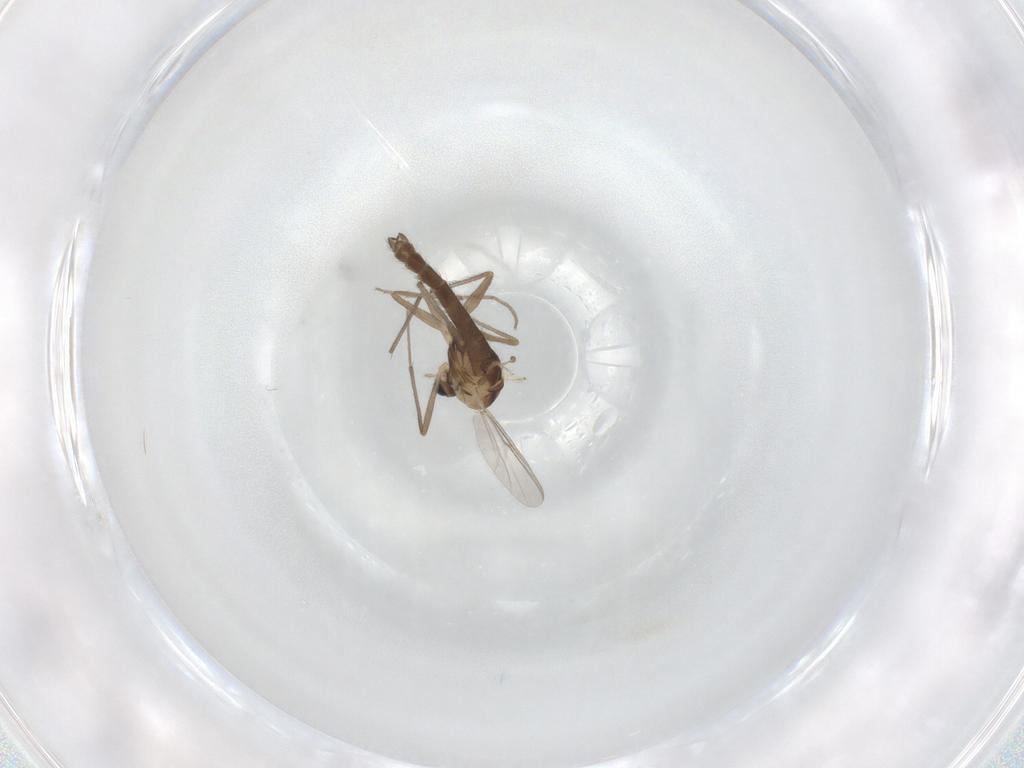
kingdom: Animalia
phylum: Arthropoda
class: Insecta
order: Diptera
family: Chironomidae
